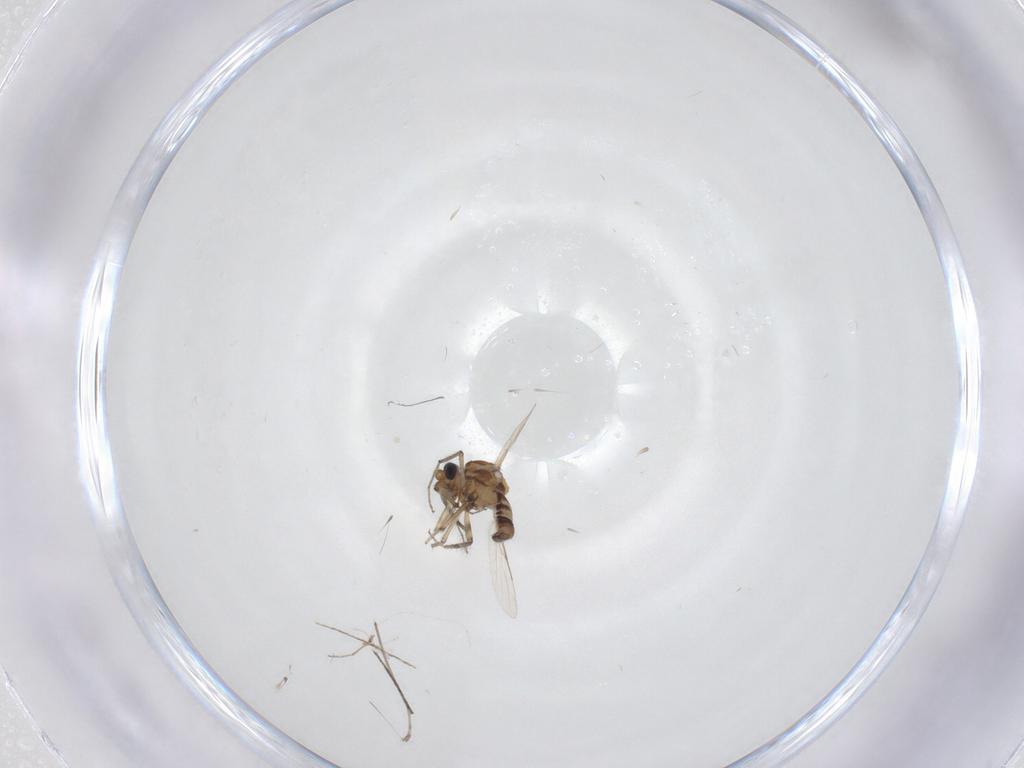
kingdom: Animalia
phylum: Arthropoda
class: Insecta
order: Diptera
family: Ceratopogonidae
